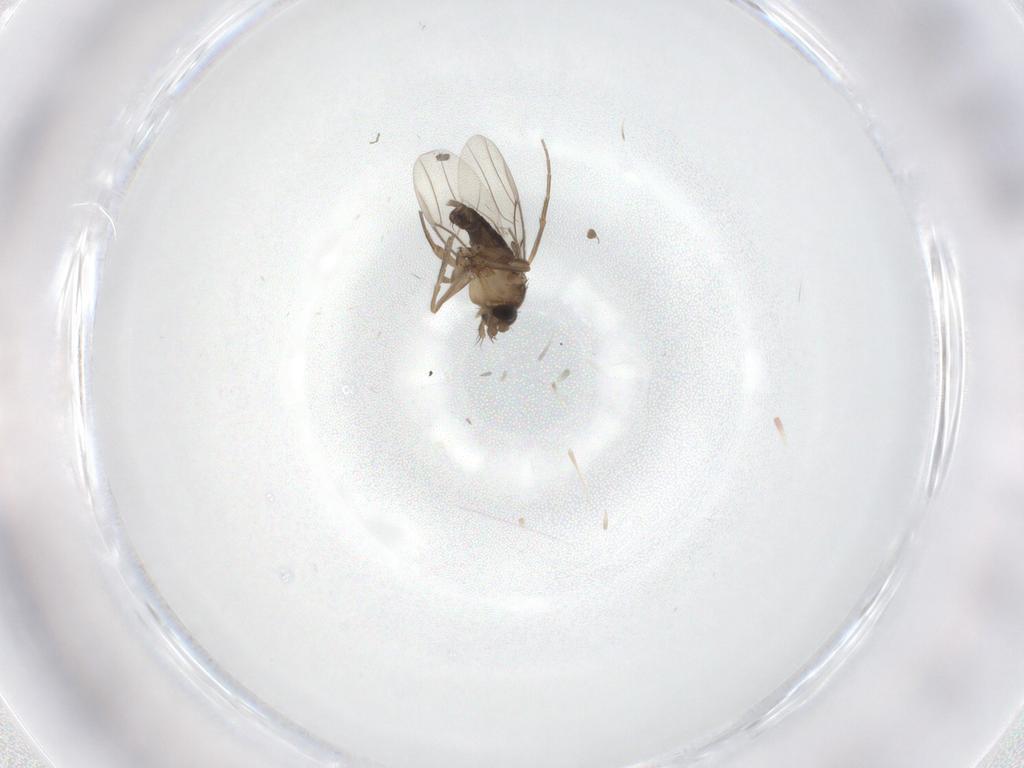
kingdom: Animalia
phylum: Arthropoda
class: Insecta
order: Diptera
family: Phoridae
